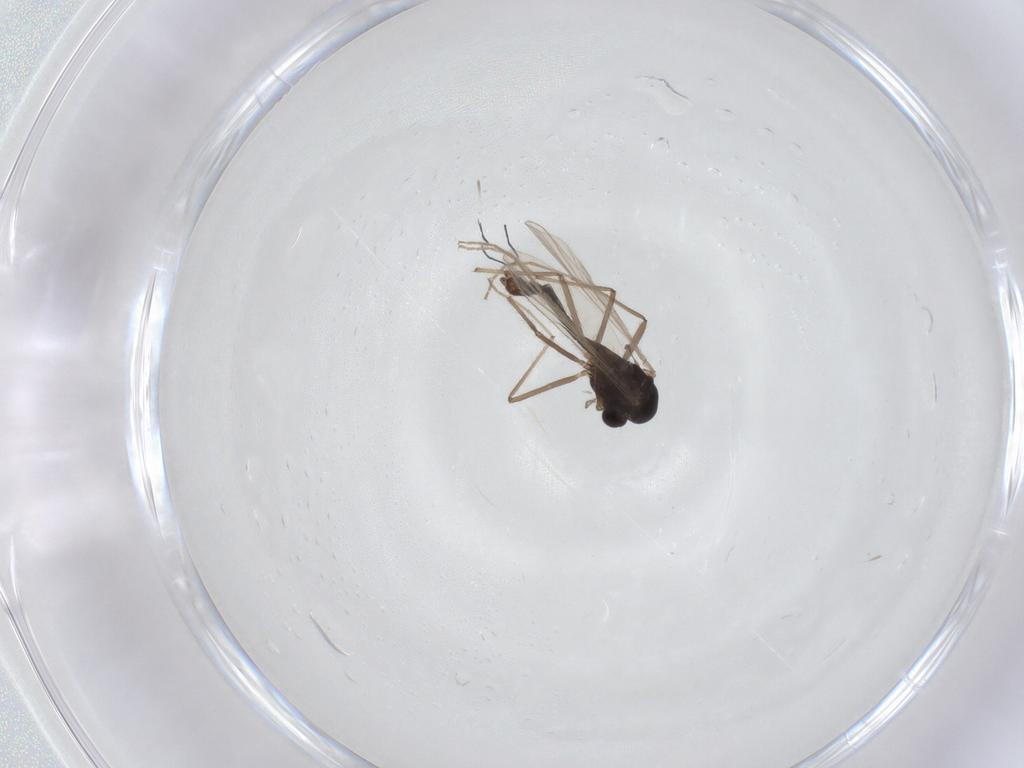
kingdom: Animalia
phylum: Arthropoda
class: Insecta
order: Diptera
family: Chironomidae
